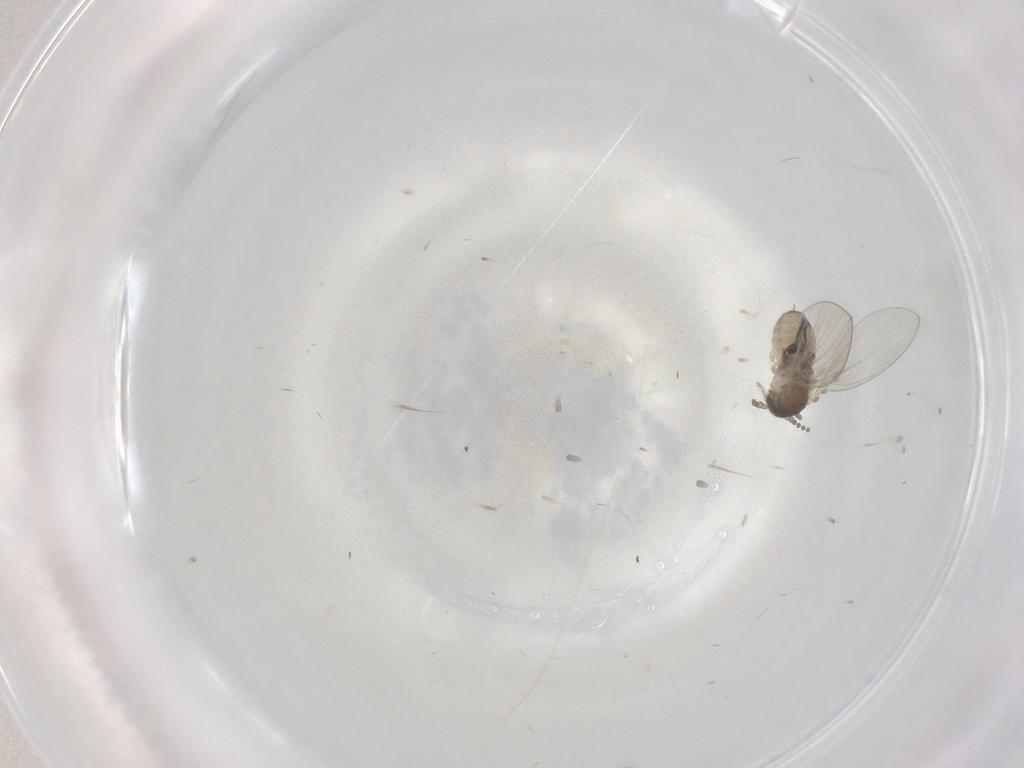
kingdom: Animalia
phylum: Arthropoda
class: Insecta
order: Diptera
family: Psychodidae
